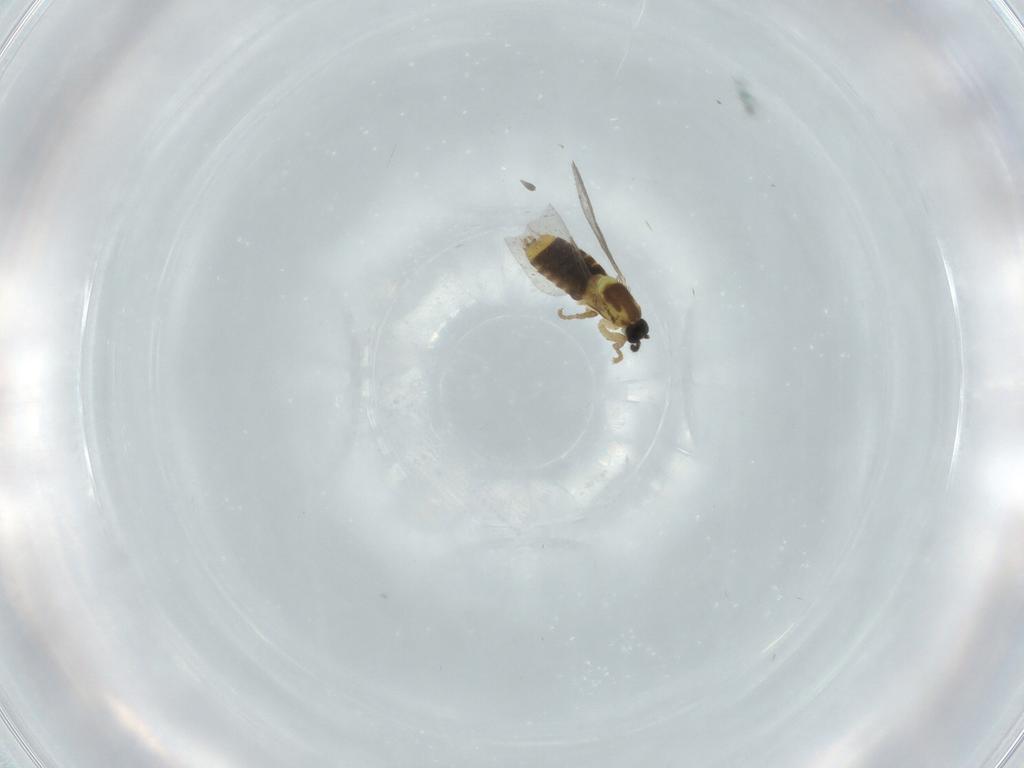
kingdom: Animalia
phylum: Arthropoda
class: Insecta
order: Diptera
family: Scatopsidae
